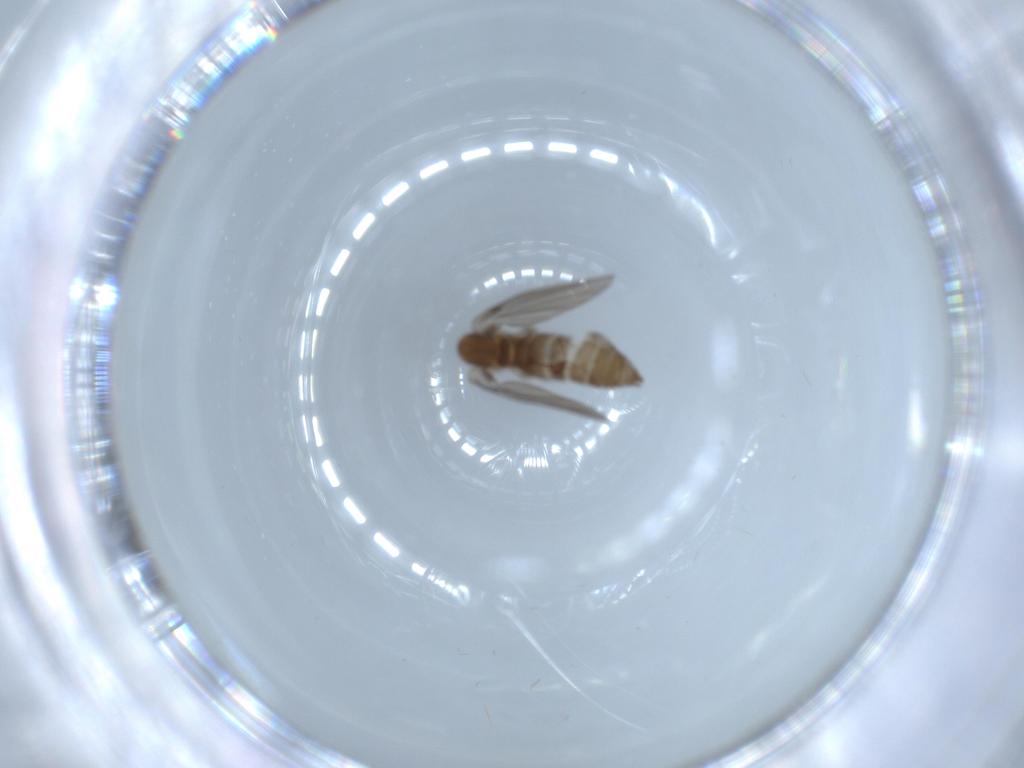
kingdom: Animalia
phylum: Arthropoda
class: Insecta
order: Diptera
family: Psychodidae
